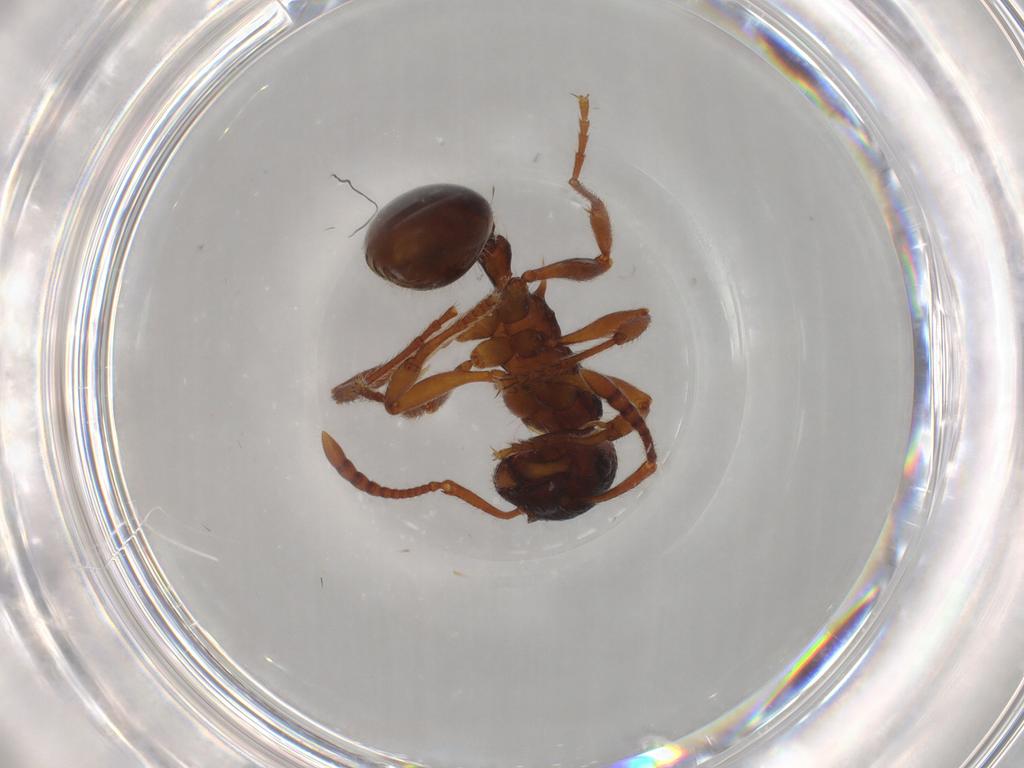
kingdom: Animalia
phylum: Arthropoda
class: Insecta
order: Hymenoptera
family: Formicidae
